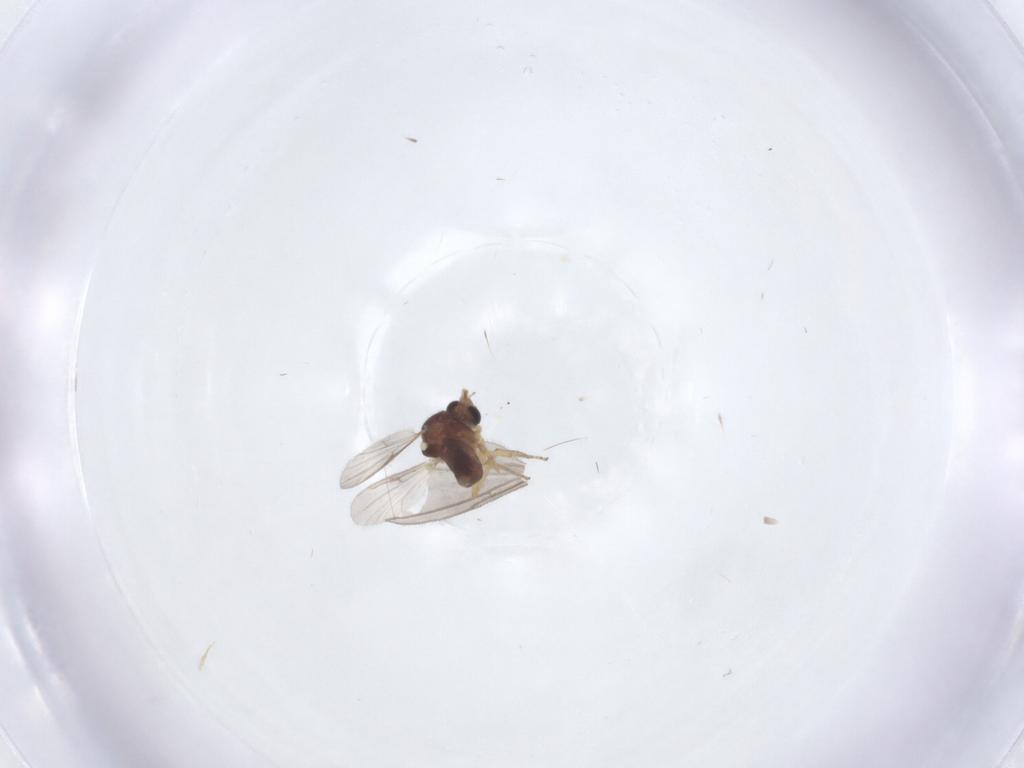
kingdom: Animalia
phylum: Arthropoda
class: Insecta
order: Diptera
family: Ceratopogonidae
